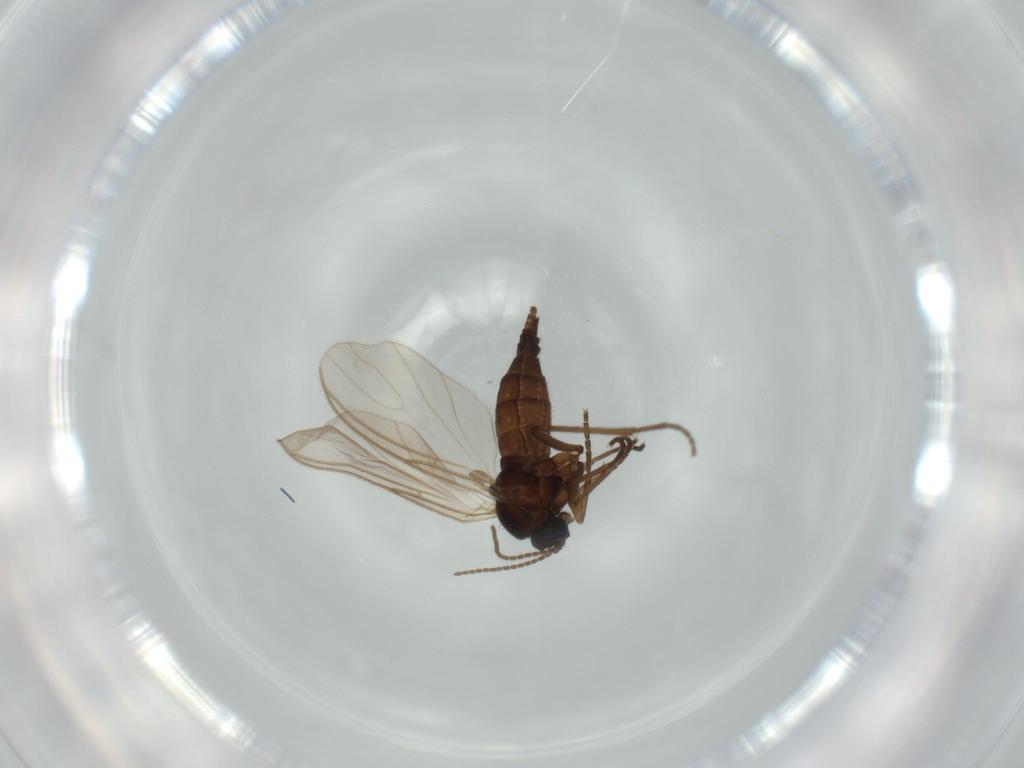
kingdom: Animalia
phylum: Arthropoda
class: Insecta
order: Diptera
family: Sciaridae
